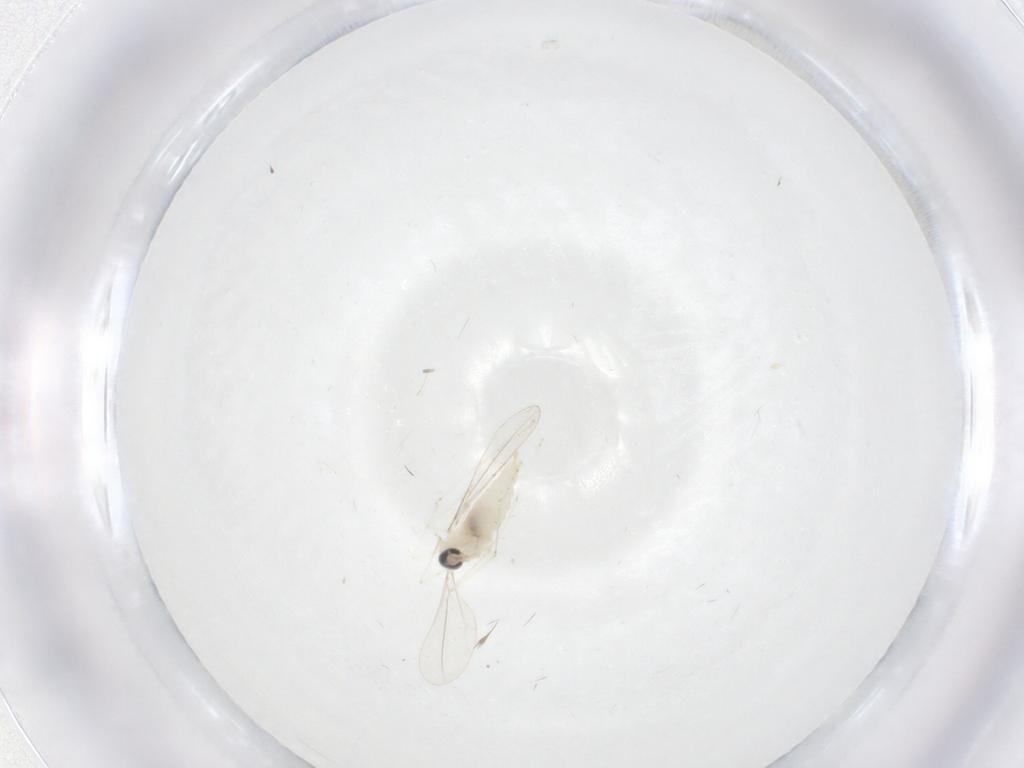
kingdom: Animalia
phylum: Arthropoda
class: Insecta
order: Diptera
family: Cecidomyiidae
